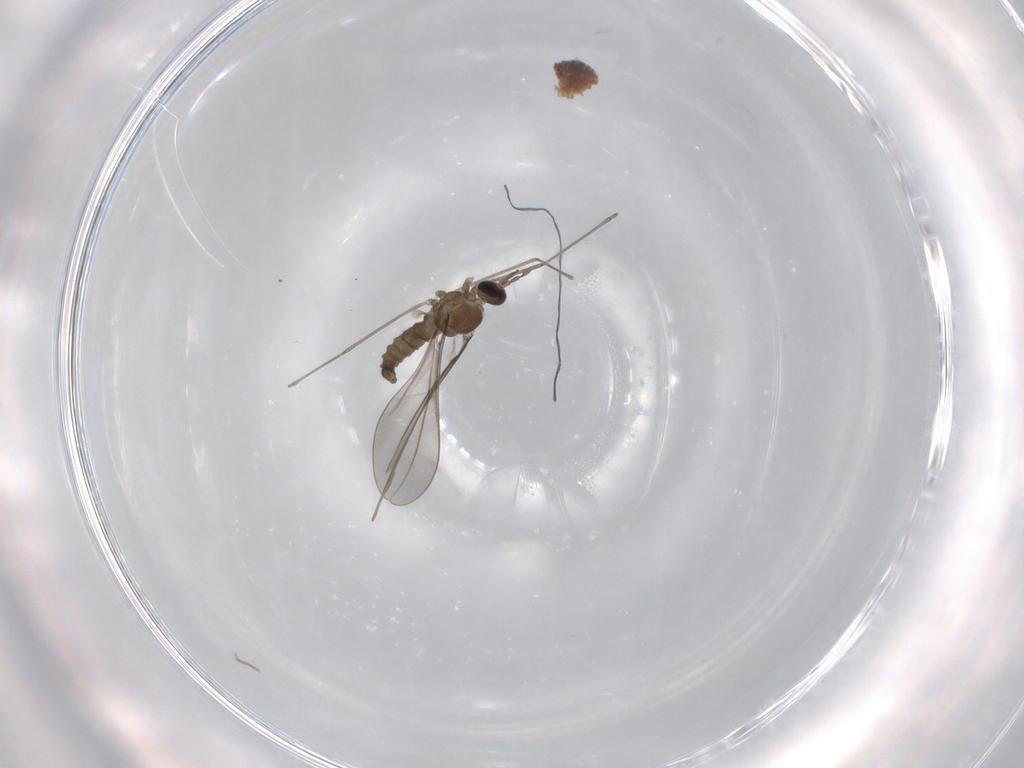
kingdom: Animalia
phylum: Arthropoda
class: Insecta
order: Diptera
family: Cecidomyiidae
